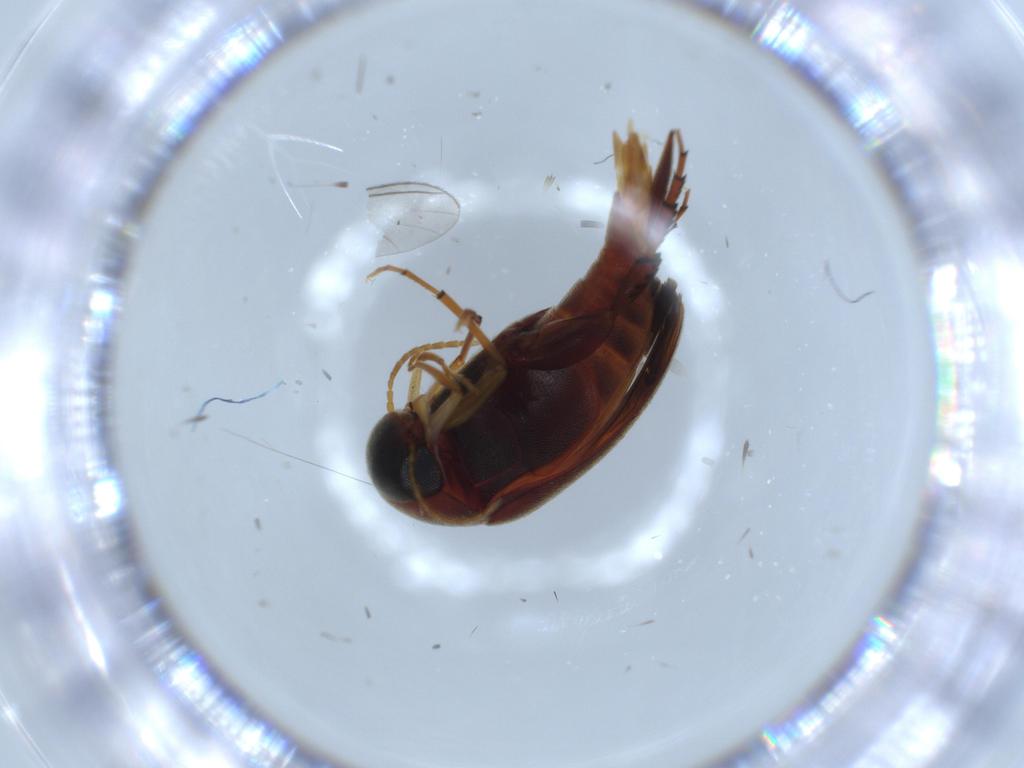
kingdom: Animalia
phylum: Arthropoda
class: Insecta
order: Coleoptera
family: Mordellidae
